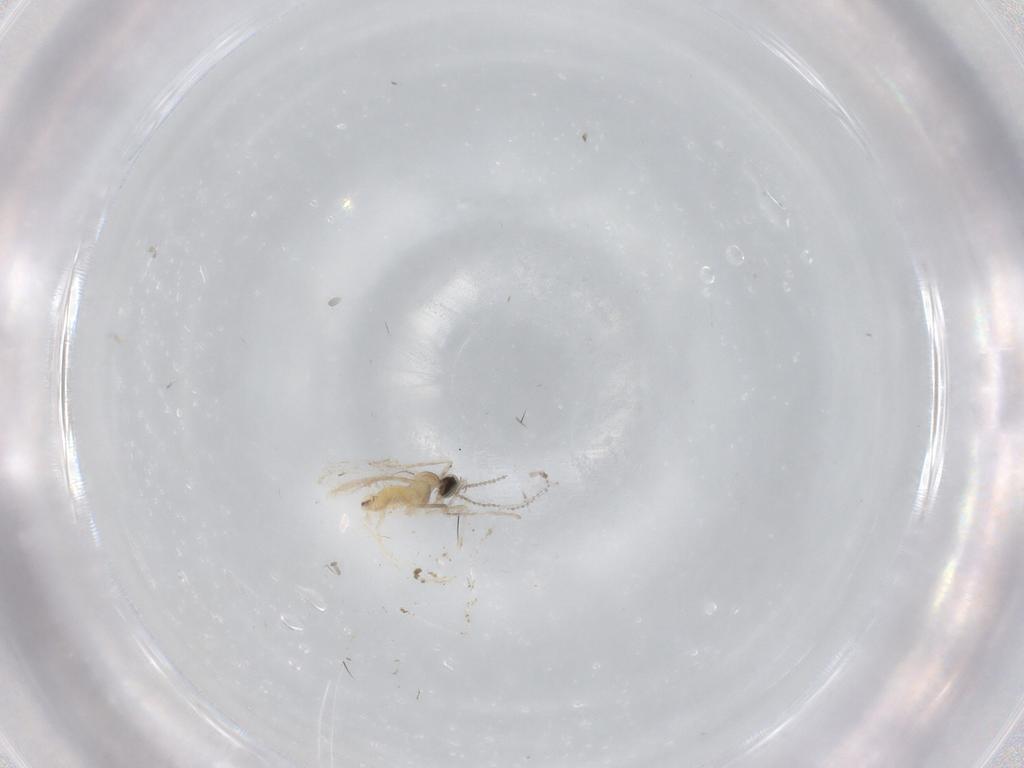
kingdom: Animalia
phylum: Arthropoda
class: Insecta
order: Diptera
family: Cecidomyiidae
